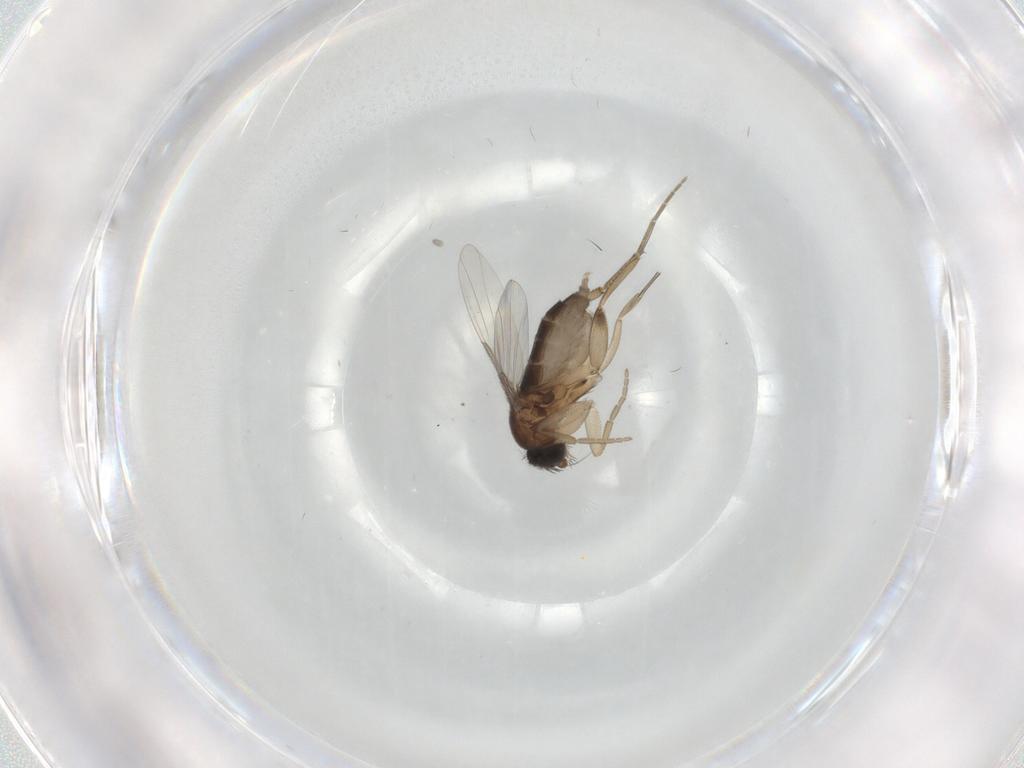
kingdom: Animalia
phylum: Arthropoda
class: Insecta
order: Diptera
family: Phoridae
